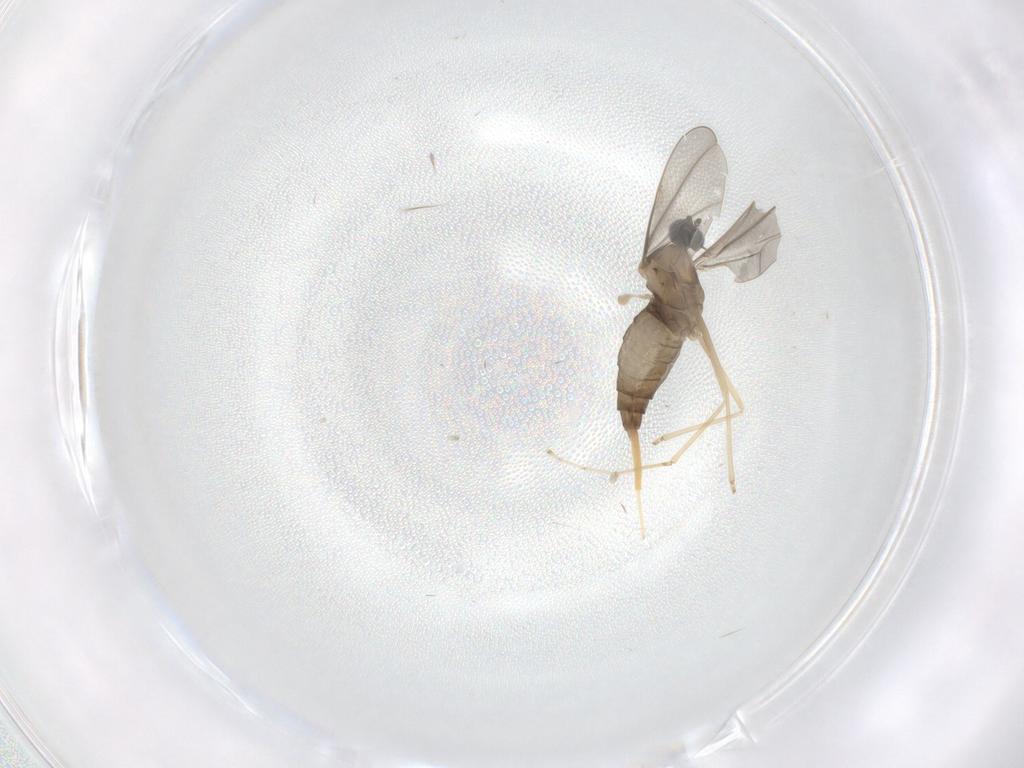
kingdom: Animalia
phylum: Arthropoda
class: Insecta
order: Diptera
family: Cecidomyiidae
